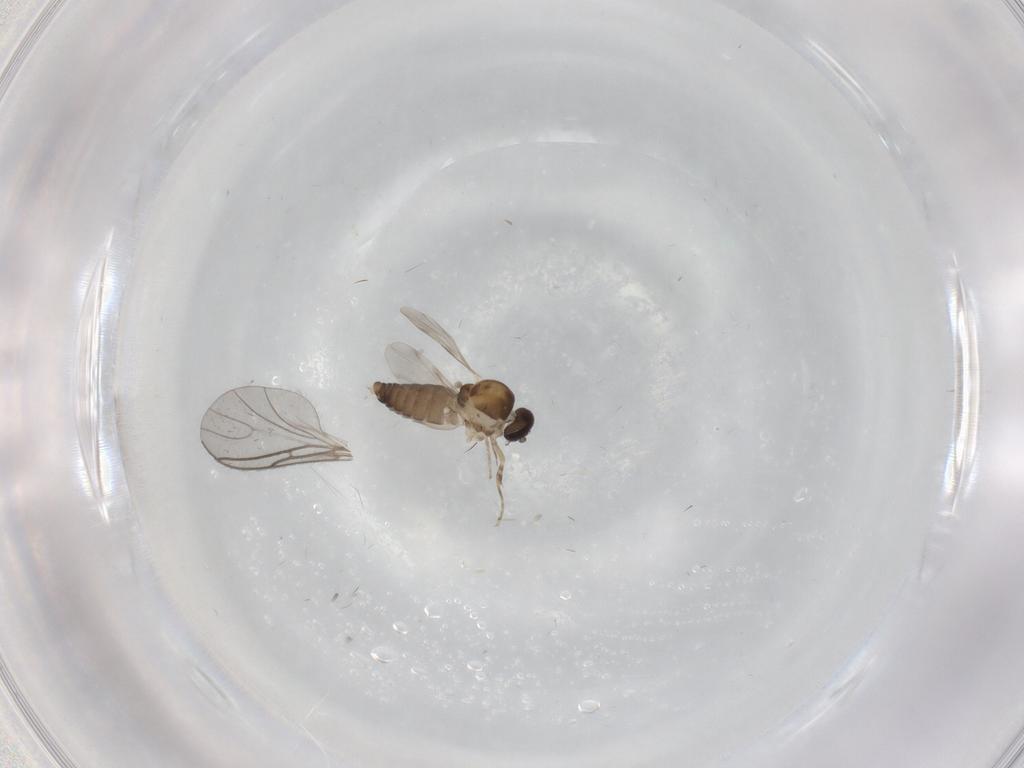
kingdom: Animalia
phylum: Arthropoda
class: Insecta
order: Diptera
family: Ceratopogonidae
